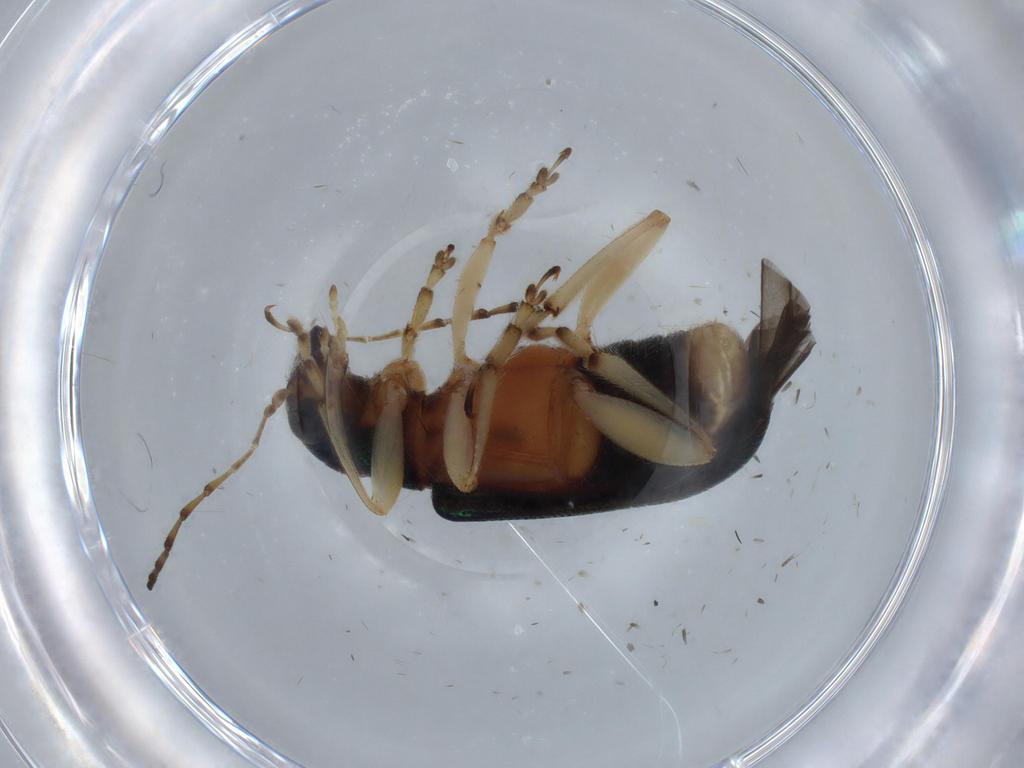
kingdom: Animalia
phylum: Arthropoda
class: Insecta
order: Coleoptera
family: Chrysomelidae
